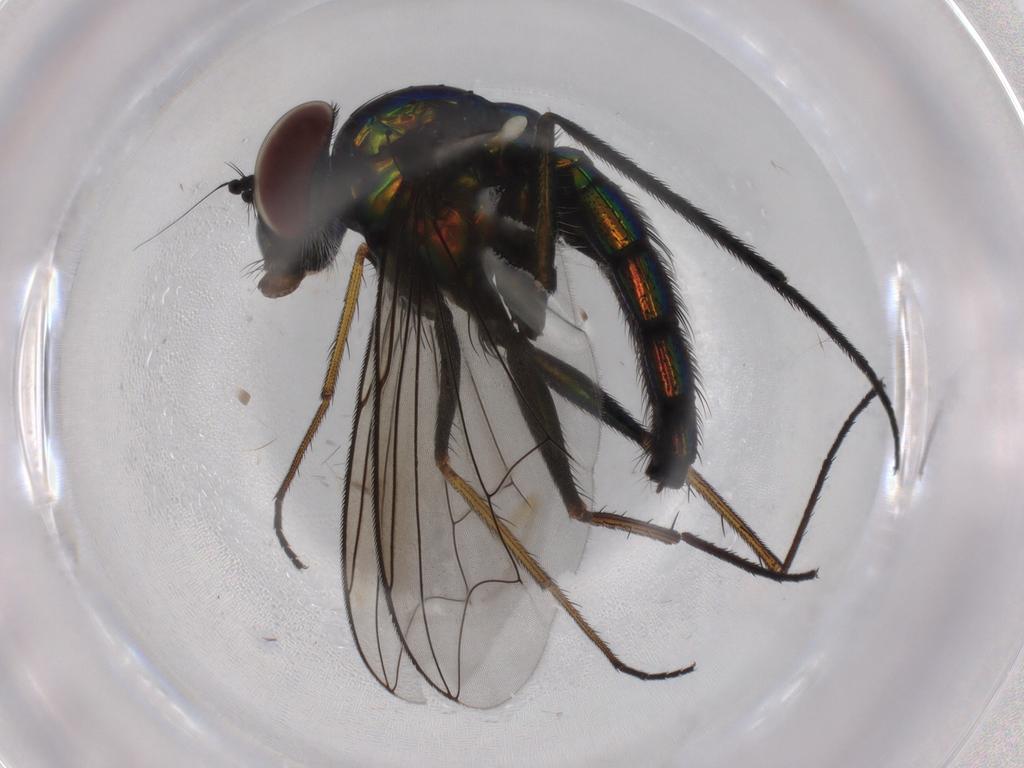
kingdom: Animalia
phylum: Arthropoda
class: Insecta
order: Diptera
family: Dolichopodidae
